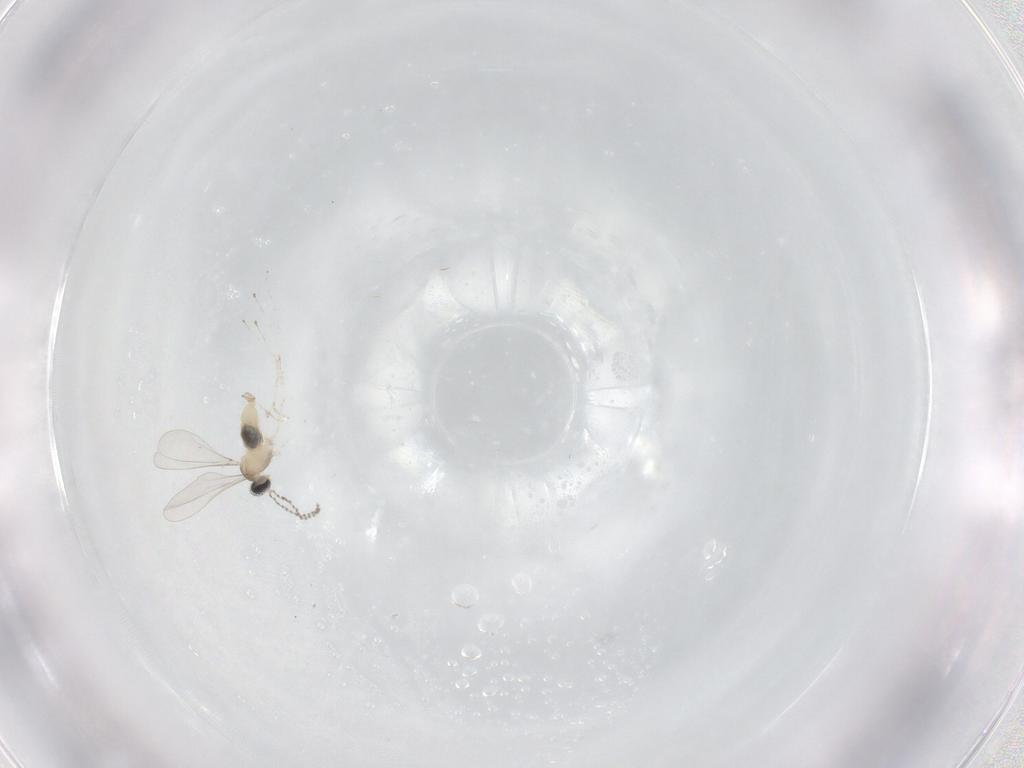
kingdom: Animalia
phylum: Arthropoda
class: Insecta
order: Diptera
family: Cecidomyiidae
